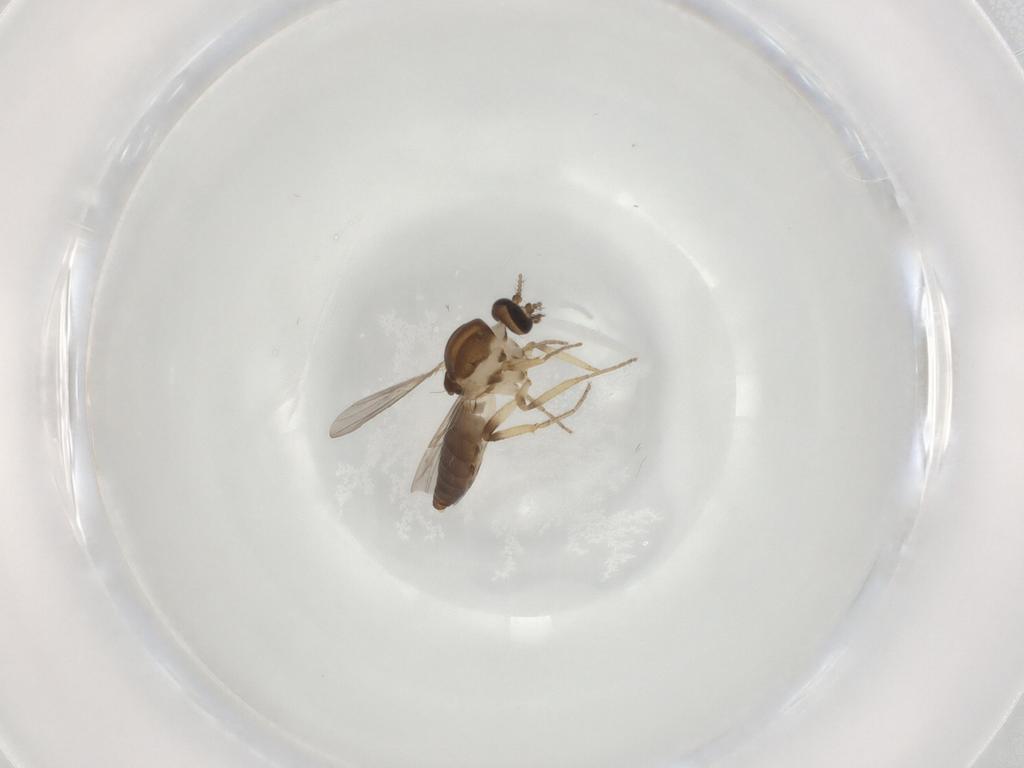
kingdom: Animalia
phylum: Arthropoda
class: Insecta
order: Diptera
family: Ceratopogonidae
